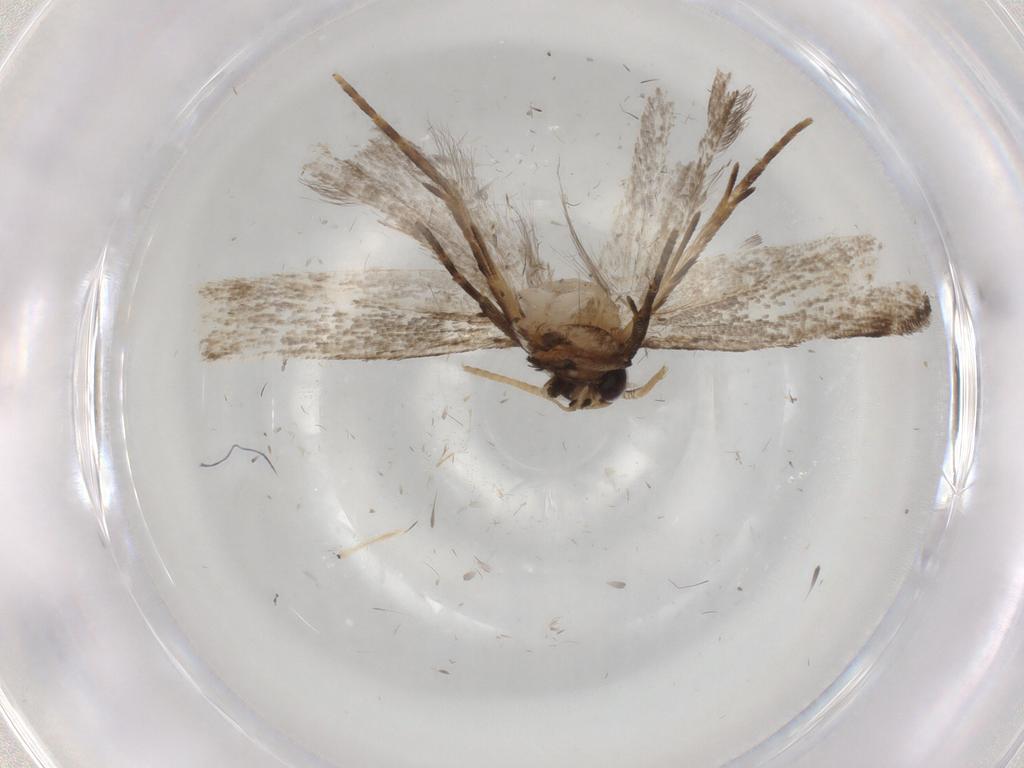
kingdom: Animalia
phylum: Arthropoda
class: Insecta
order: Lepidoptera
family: Gelechiidae
